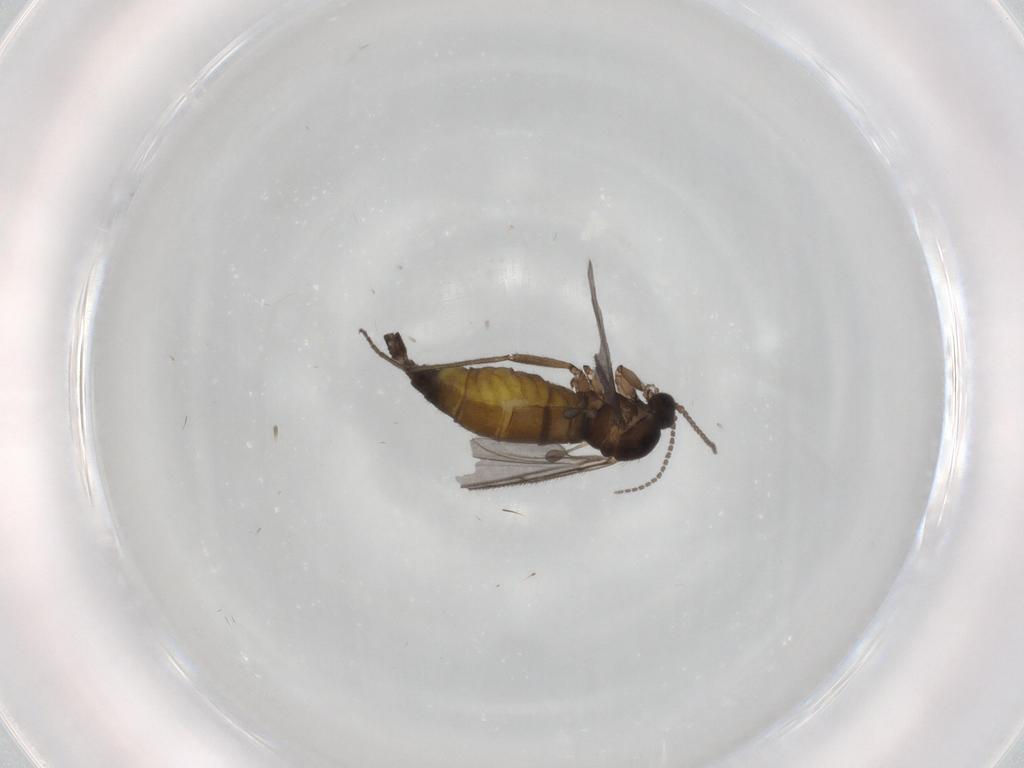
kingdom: Animalia
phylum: Arthropoda
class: Insecta
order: Diptera
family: Sciaridae
